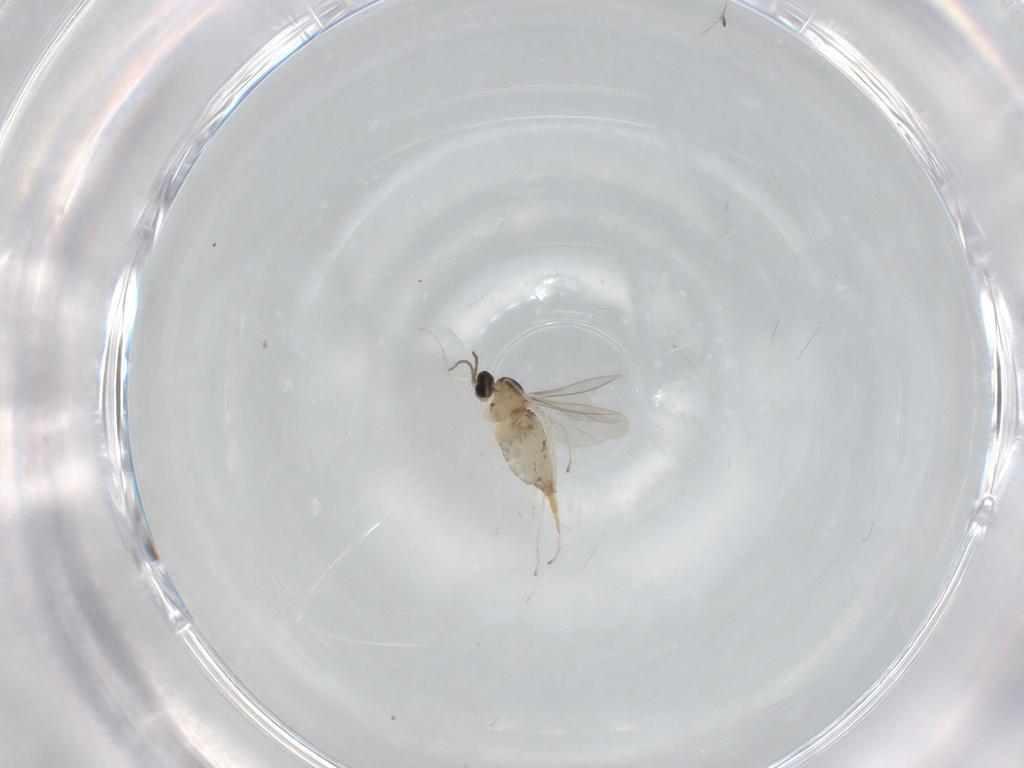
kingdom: Animalia
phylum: Arthropoda
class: Insecta
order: Diptera
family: Cecidomyiidae
